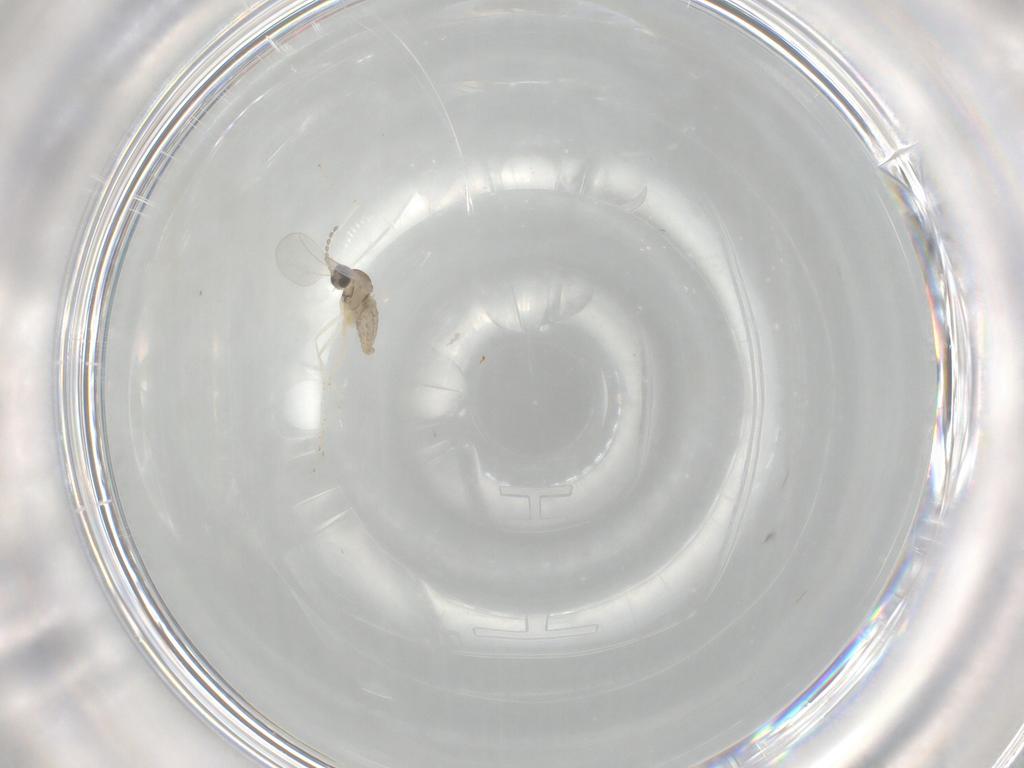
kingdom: Animalia
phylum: Arthropoda
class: Insecta
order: Diptera
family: Cecidomyiidae
